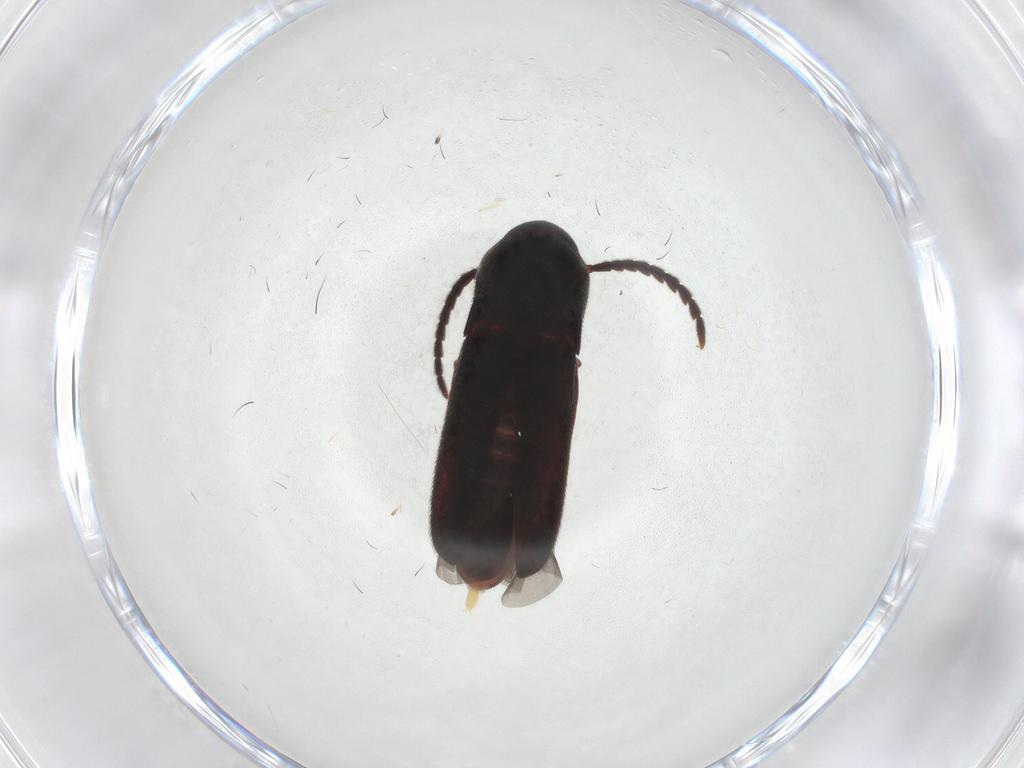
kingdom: Animalia
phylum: Arthropoda
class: Insecta
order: Coleoptera
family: Eucnemidae
